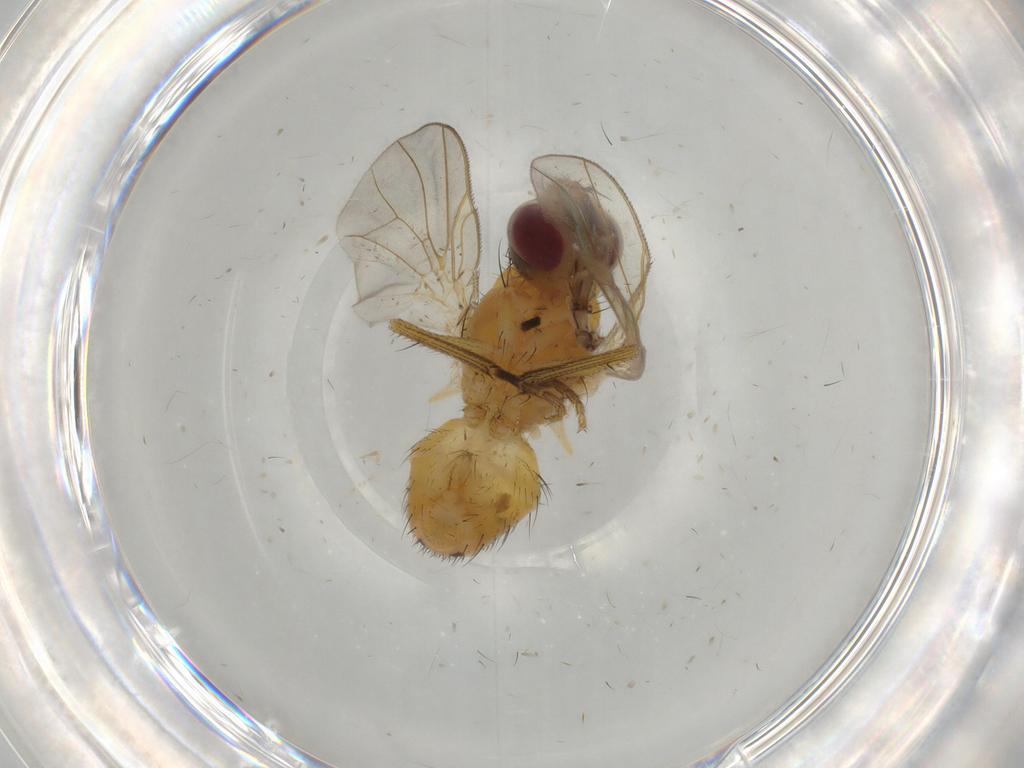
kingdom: Animalia
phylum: Arthropoda
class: Insecta
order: Diptera
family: Muscidae
